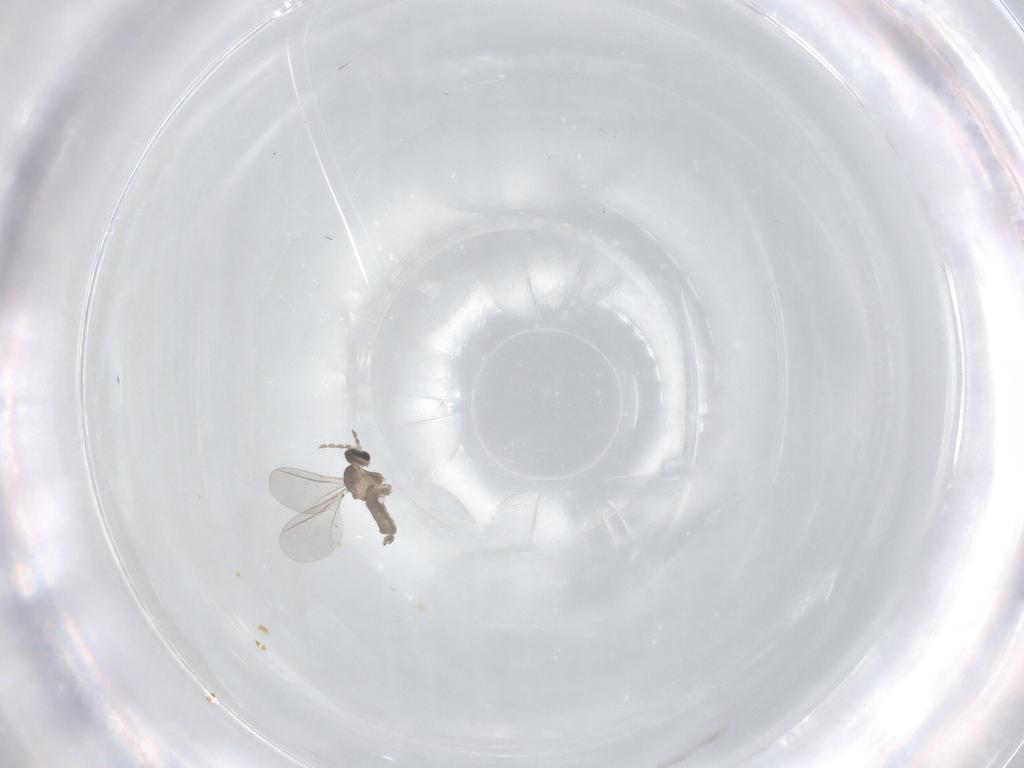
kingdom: Animalia
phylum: Arthropoda
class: Insecta
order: Diptera
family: Cecidomyiidae
